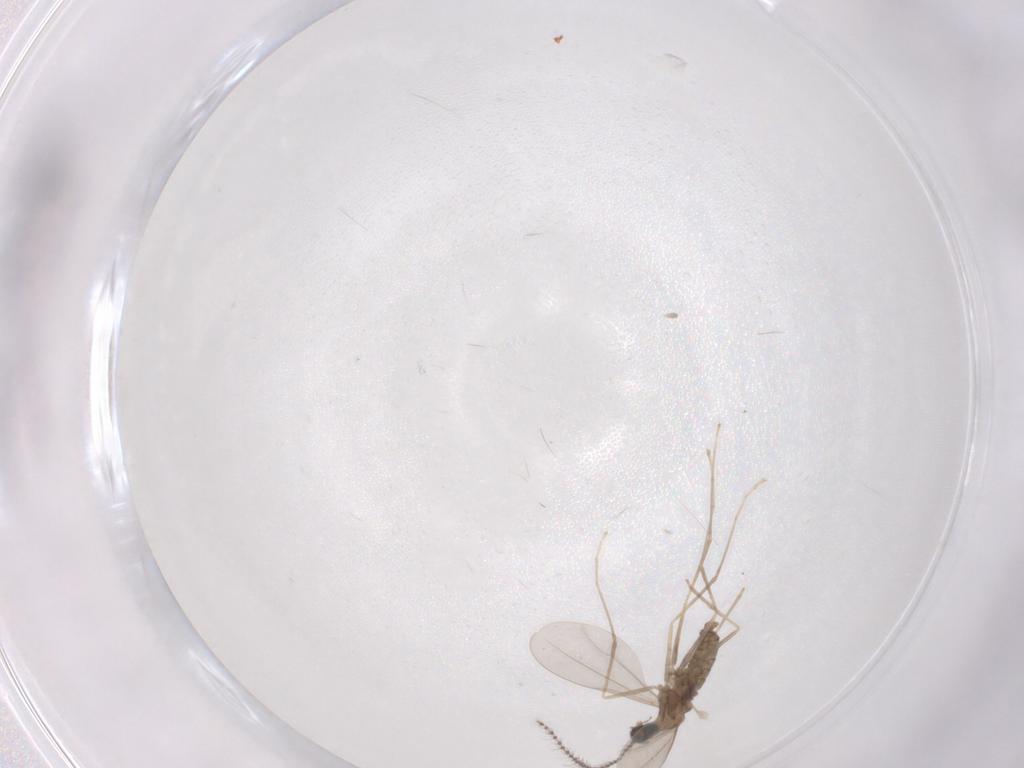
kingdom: Animalia
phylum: Arthropoda
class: Insecta
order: Diptera
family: Cecidomyiidae
